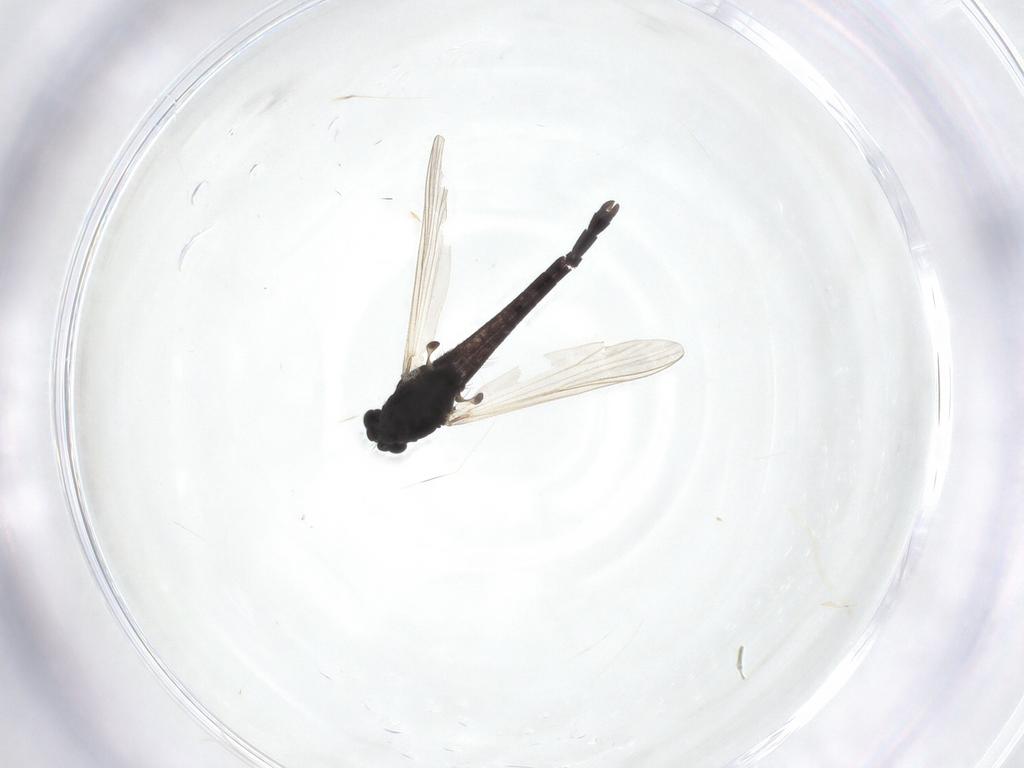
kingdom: Animalia
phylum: Arthropoda
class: Insecta
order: Diptera
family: Chironomidae
